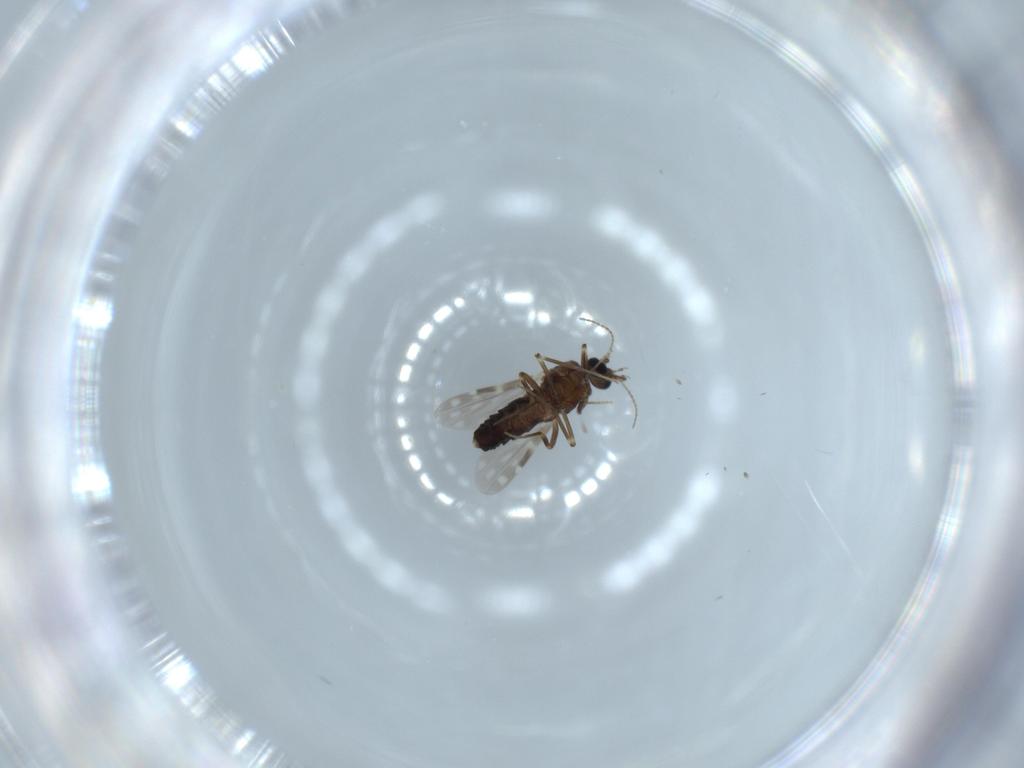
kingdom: Animalia
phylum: Arthropoda
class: Insecta
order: Diptera
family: Ceratopogonidae
